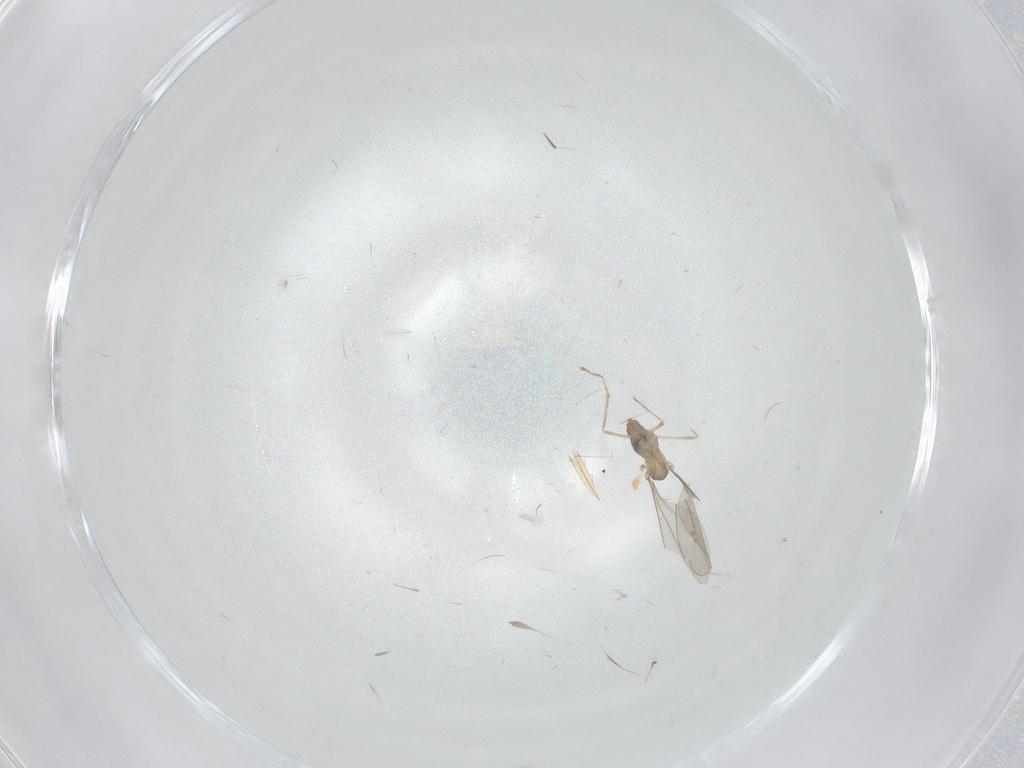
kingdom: Animalia
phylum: Arthropoda
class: Insecta
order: Diptera
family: Cecidomyiidae
